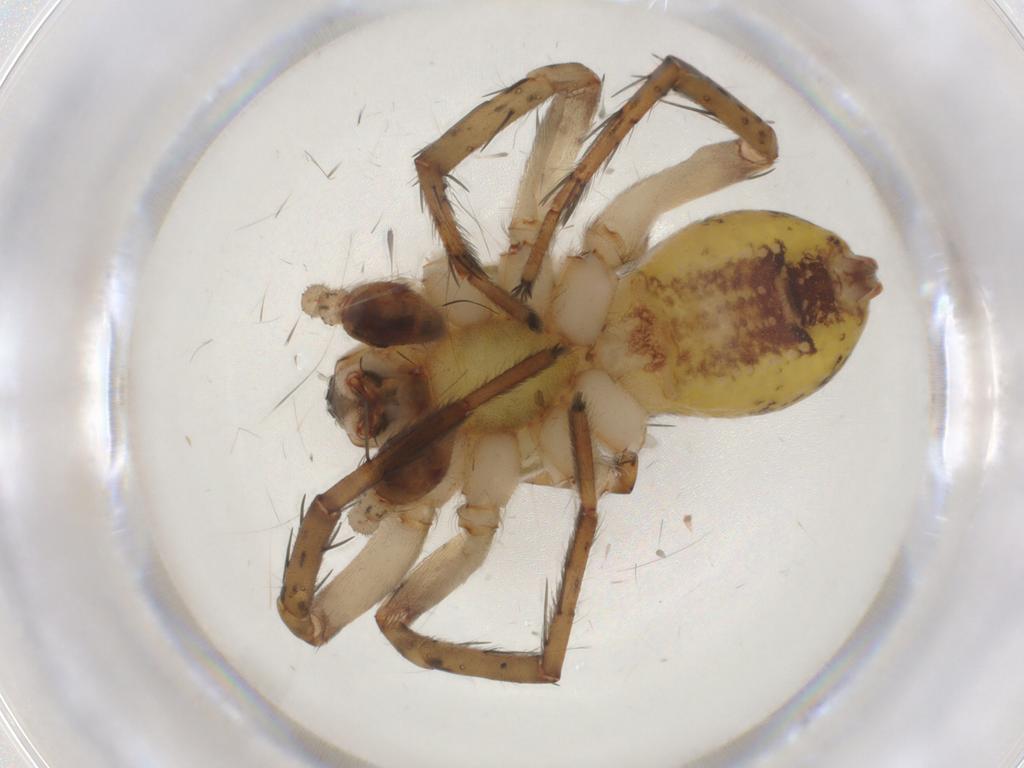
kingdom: Animalia
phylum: Arthropoda
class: Arachnida
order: Araneae
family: Anyphaenidae
